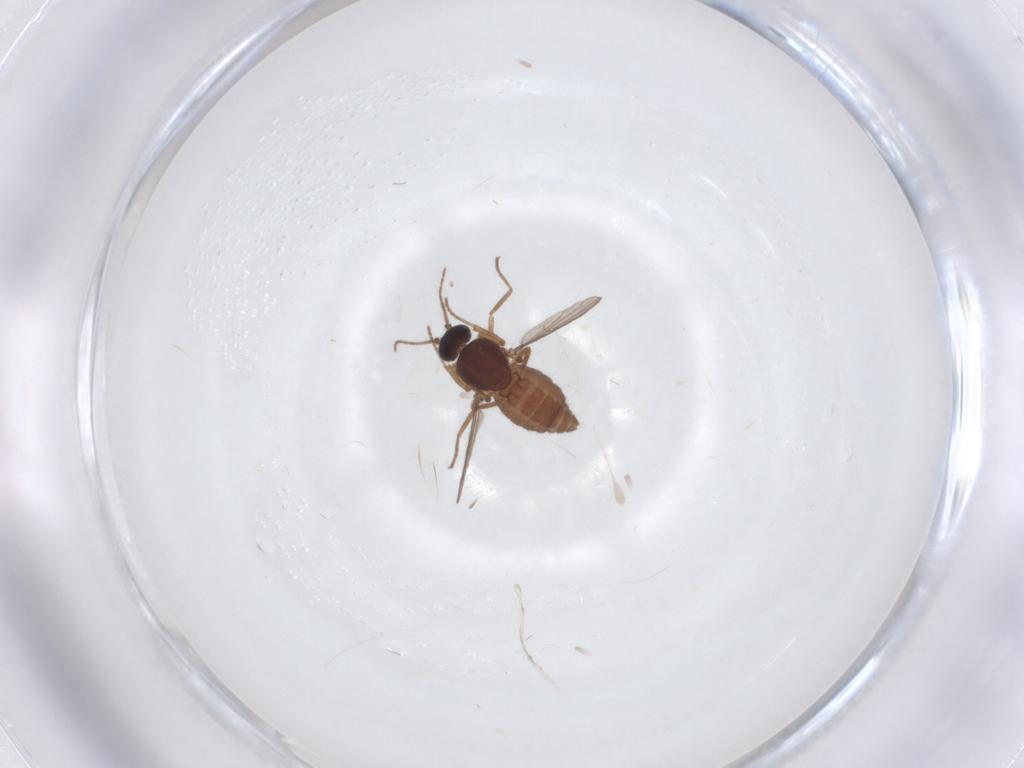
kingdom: Animalia
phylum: Arthropoda
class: Insecta
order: Diptera
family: Ceratopogonidae
